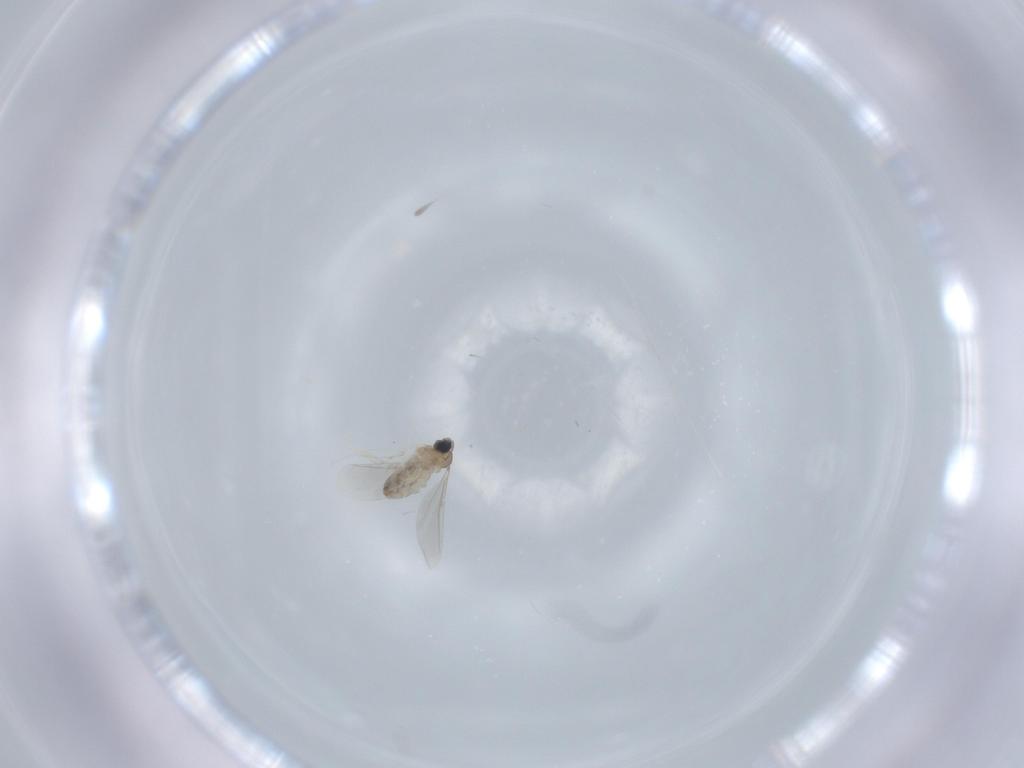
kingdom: Animalia
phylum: Arthropoda
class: Insecta
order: Diptera
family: Cecidomyiidae
